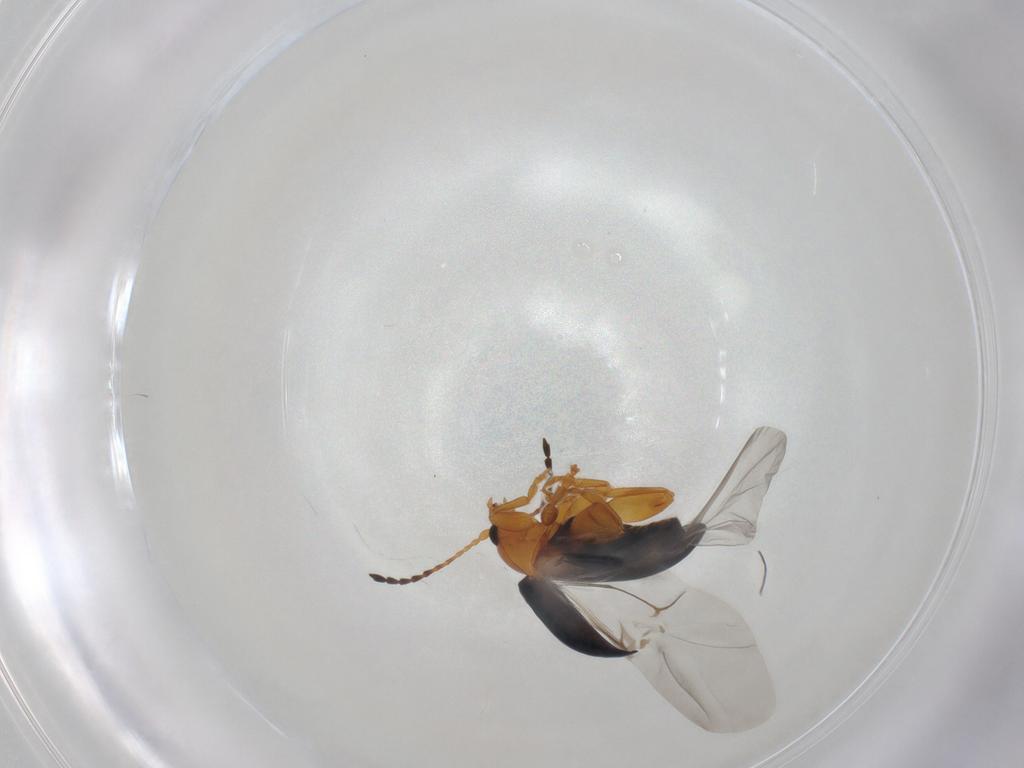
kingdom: Animalia
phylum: Arthropoda
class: Insecta
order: Coleoptera
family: Chrysomelidae
